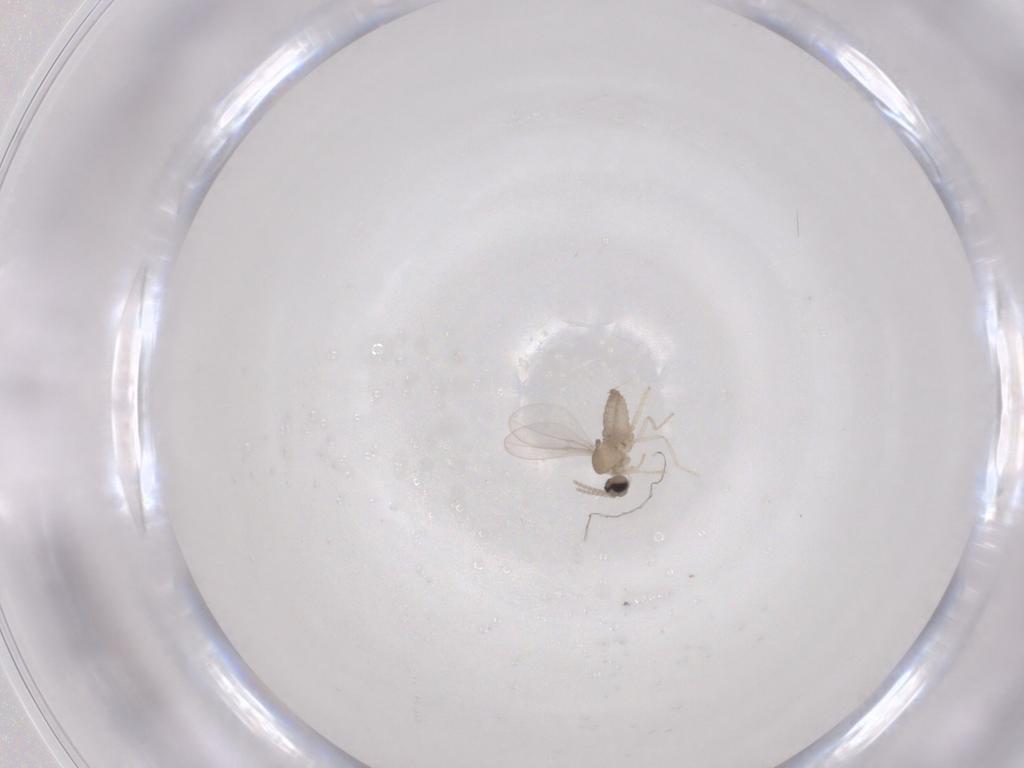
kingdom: Animalia
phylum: Arthropoda
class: Insecta
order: Diptera
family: Cecidomyiidae
